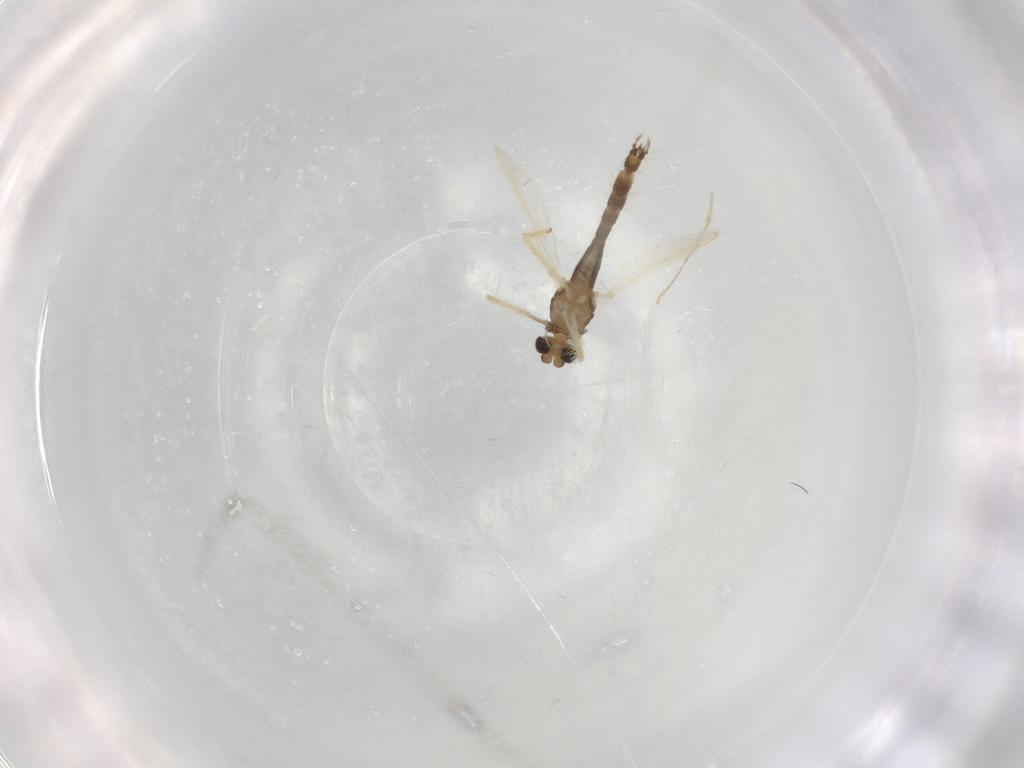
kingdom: Animalia
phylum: Arthropoda
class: Insecta
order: Diptera
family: Chironomidae
